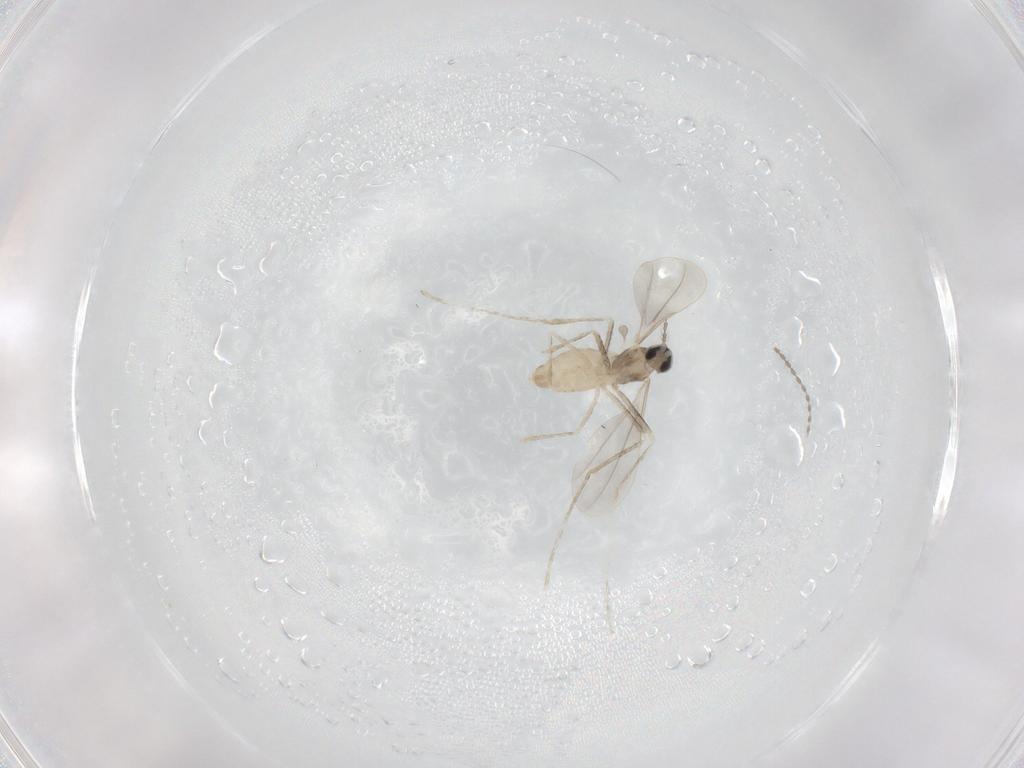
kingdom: Animalia
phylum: Arthropoda
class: Insecta
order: Diptera
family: Cecidomyiidae
